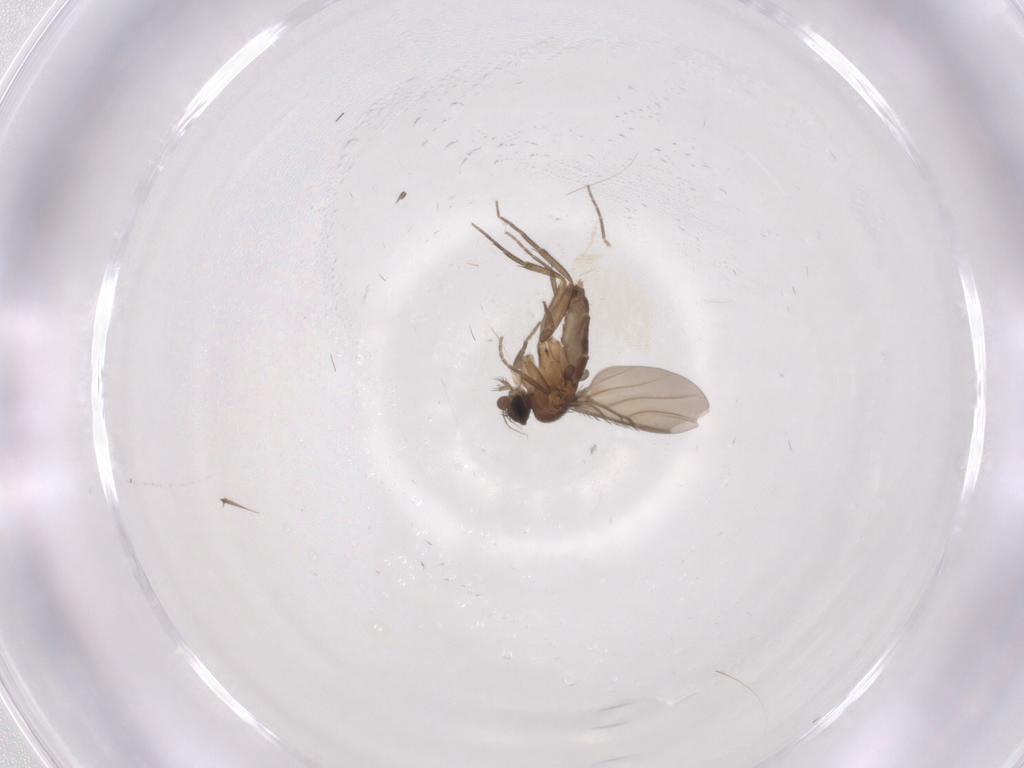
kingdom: Animalia
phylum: Arthropoda
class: Insecta
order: Diptera
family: Phoridae
